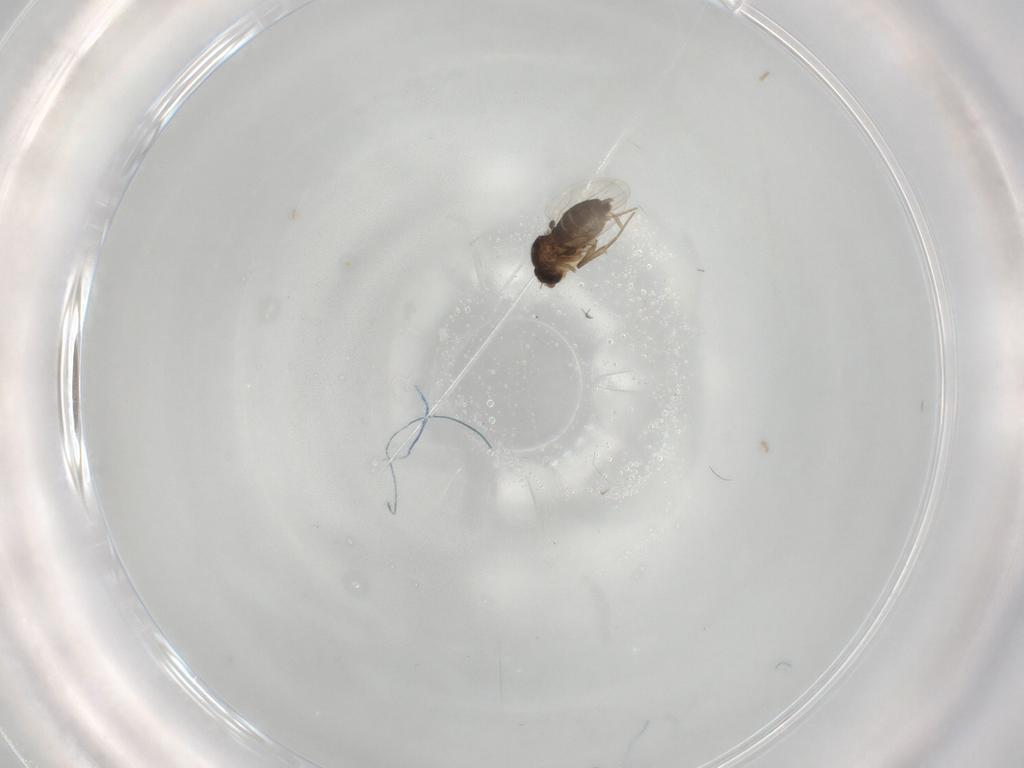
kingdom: Animalia
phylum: Arthropoda
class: Insecta
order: Diptera
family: Phoridae
